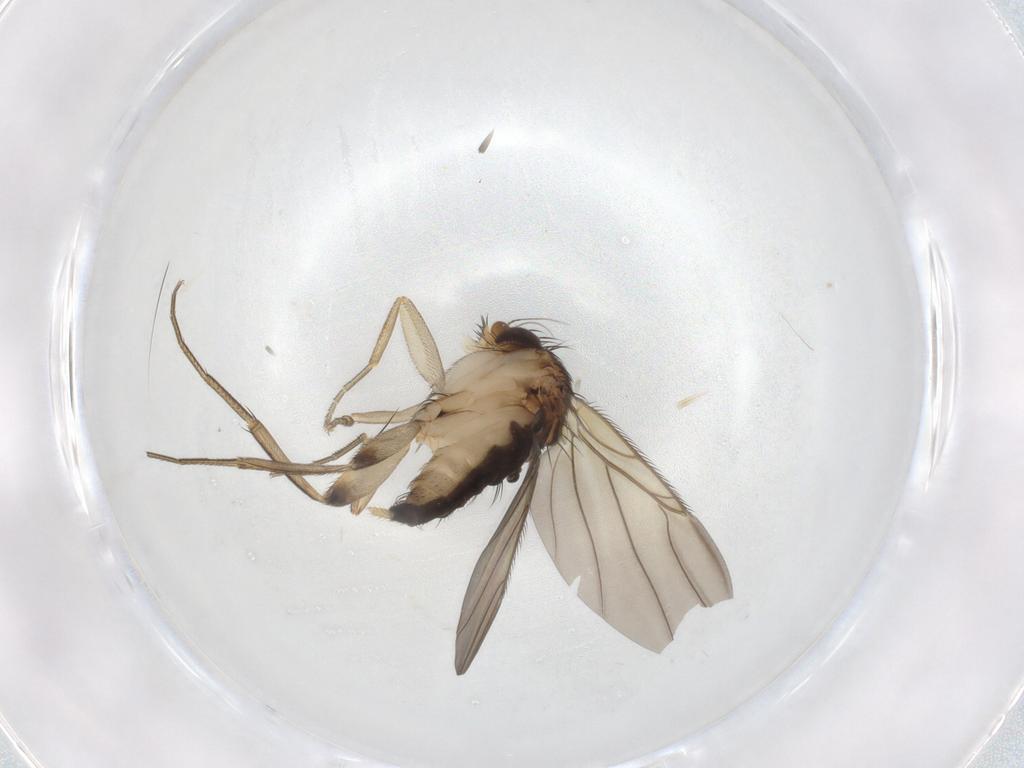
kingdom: Animalia
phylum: Arthropoda
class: Insecta
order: Diptera
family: Phoridae
